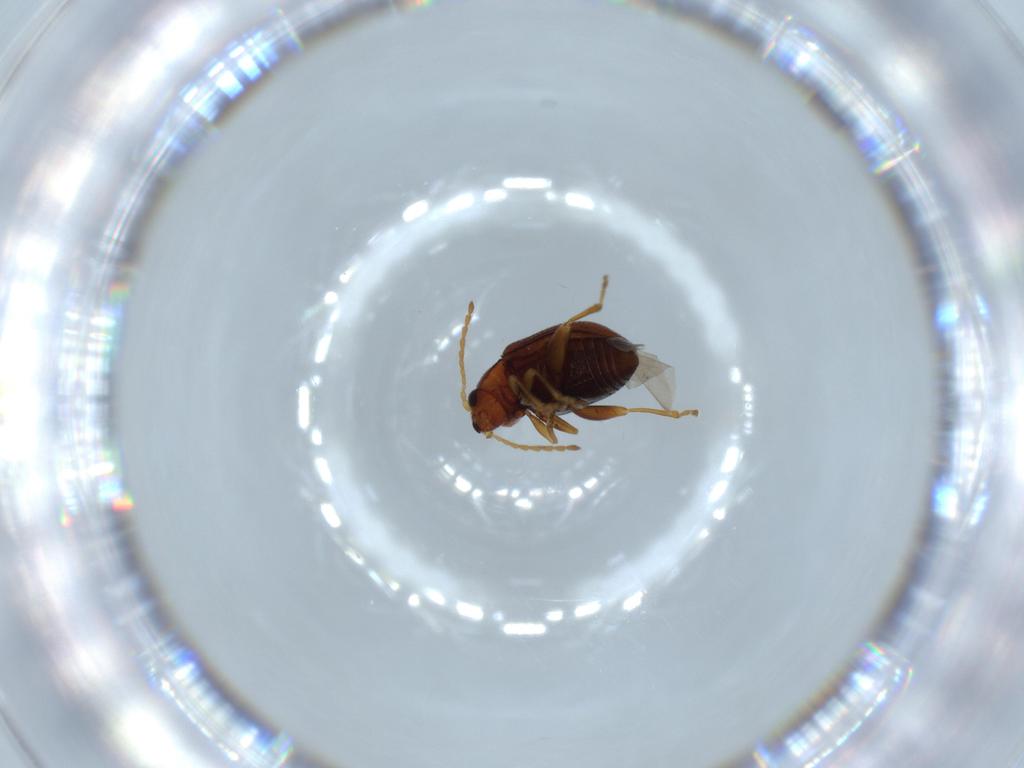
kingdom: Animalia
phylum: Arthropoda
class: Insecta
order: Coleoptera
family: Chrysomelidae
